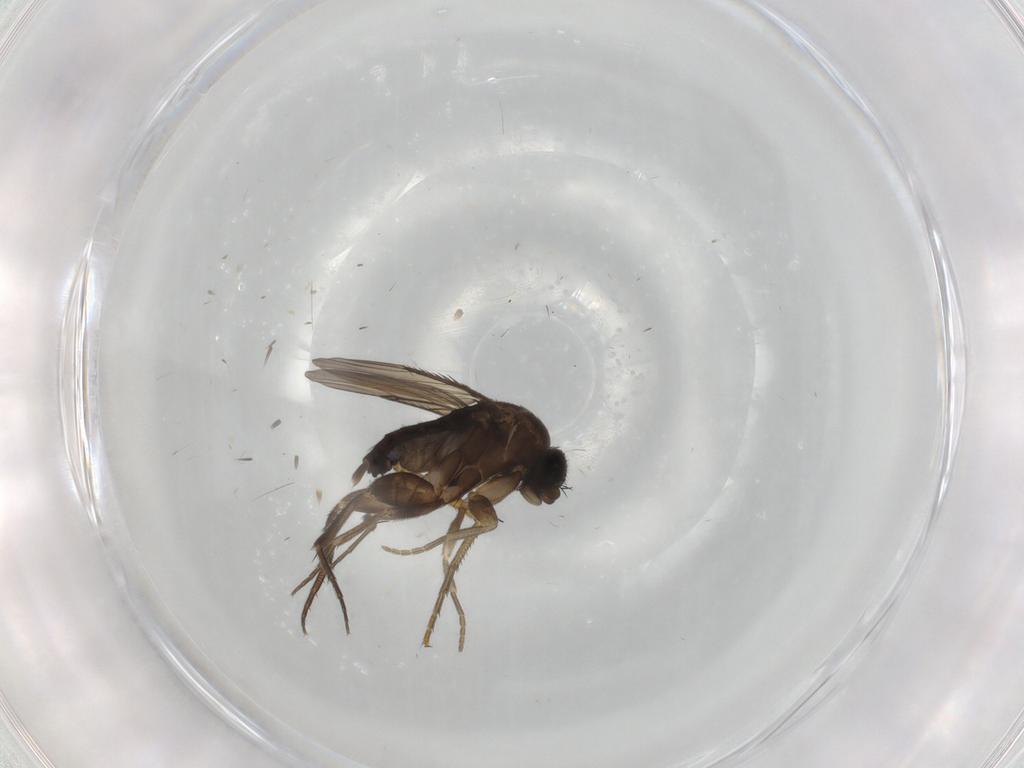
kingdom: Animalia
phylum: Arthropoda
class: Insecta
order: Diptera
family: Phoridae
